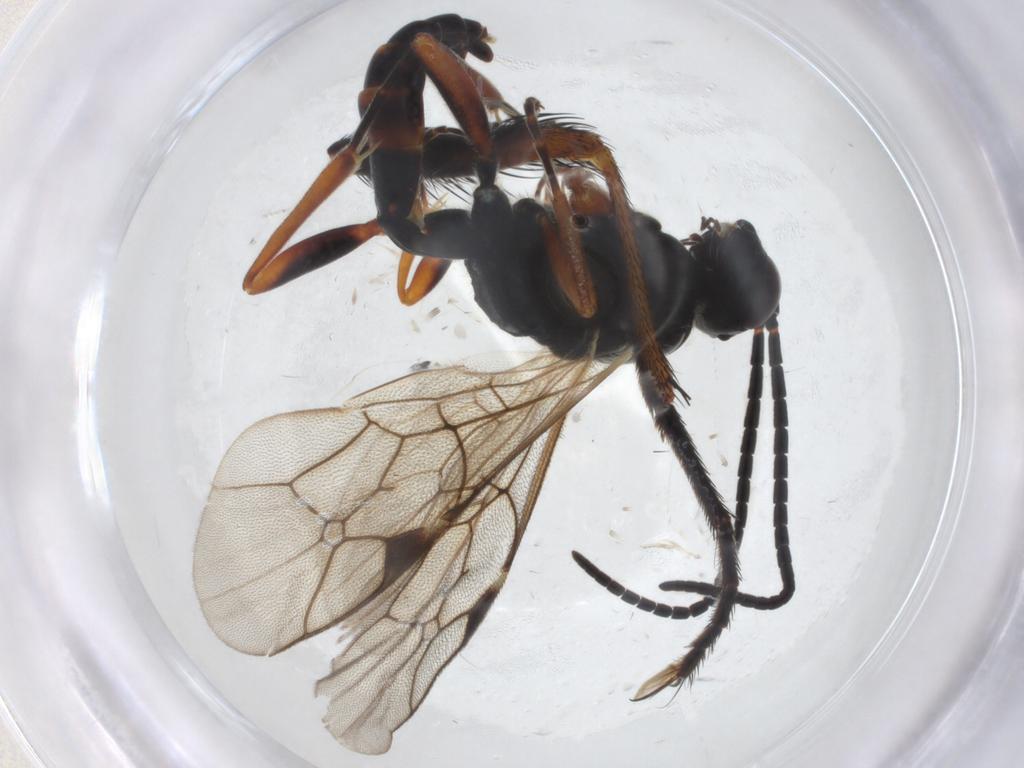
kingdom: Animalia
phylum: Arthropoda
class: Insecta
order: Hymenoptera
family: Ichneumonidae
